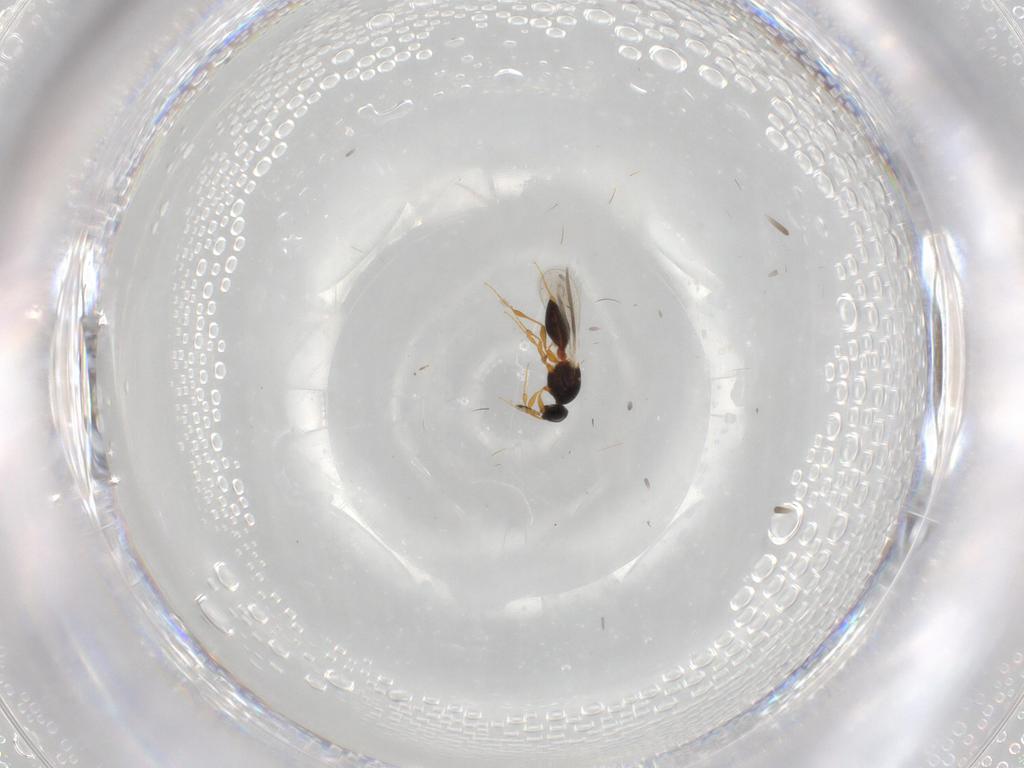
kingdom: Animalia
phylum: Arthropoda
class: Insecta
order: Hymenoptera
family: Platygastridae
